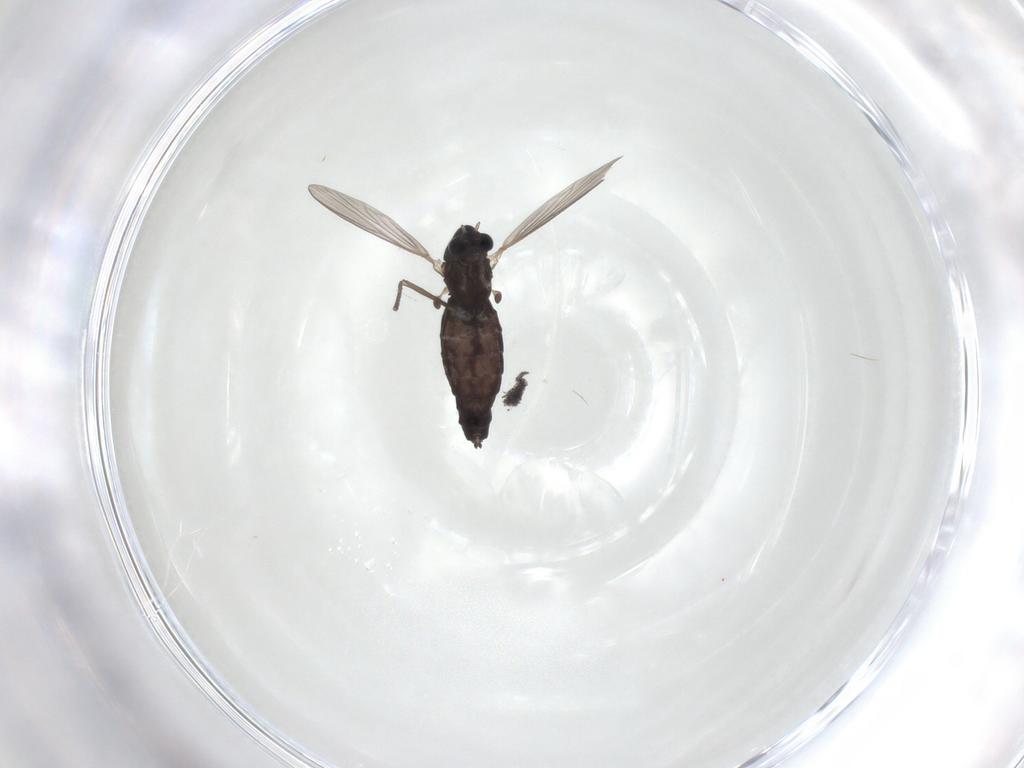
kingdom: Animalia
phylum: Arthropoda
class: Insecta
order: Diptera
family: Chironomidae
